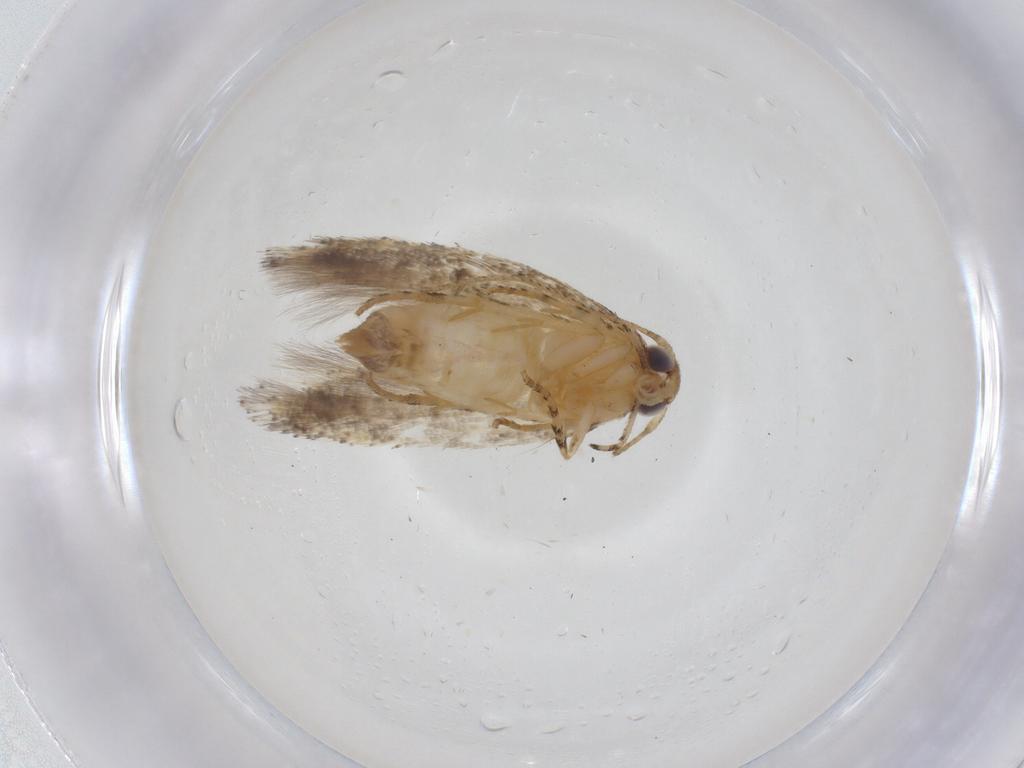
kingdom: Animalia
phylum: Arthropoda
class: Insecta
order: Lepidoptera
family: Gelechiidae
